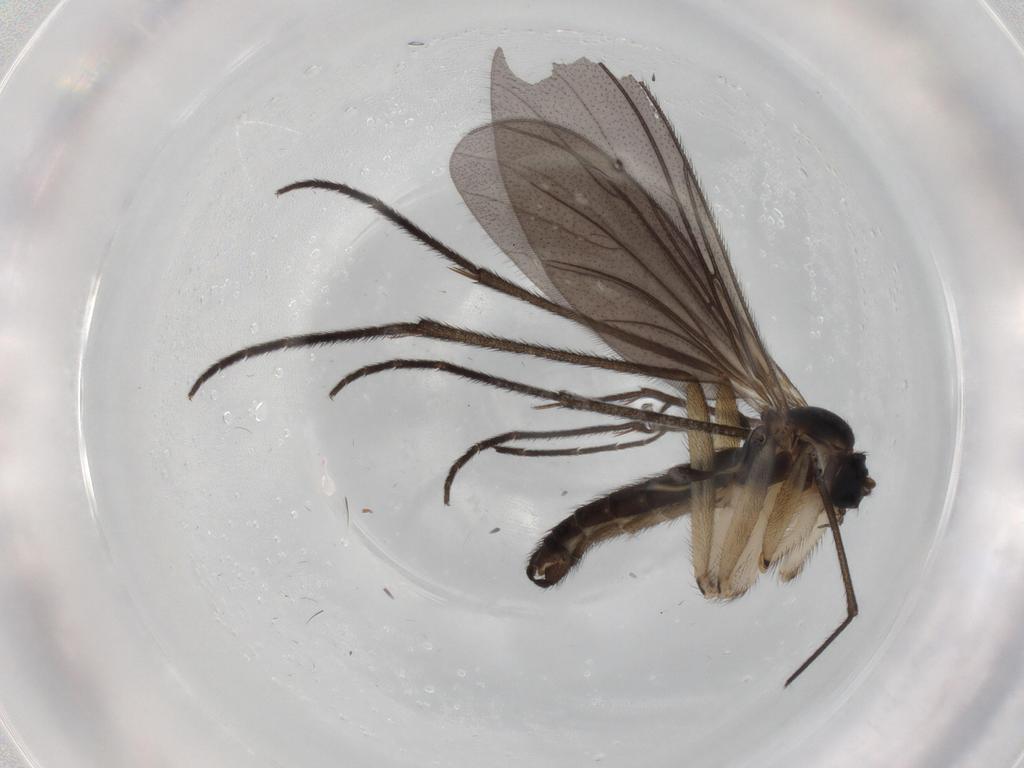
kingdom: Animalia
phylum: Arthropoda
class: Insecta
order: Diptera
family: Sciaridae
